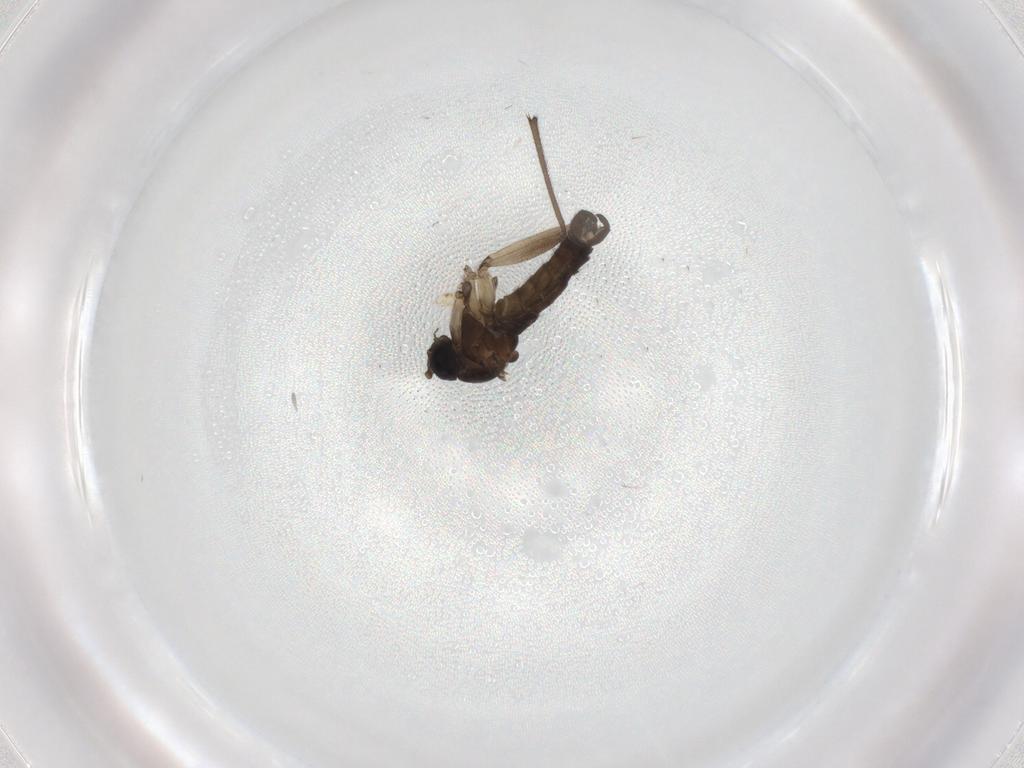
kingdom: Animalia
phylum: Arthropoda
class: Insecta
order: Diptera
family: Sciaridae
